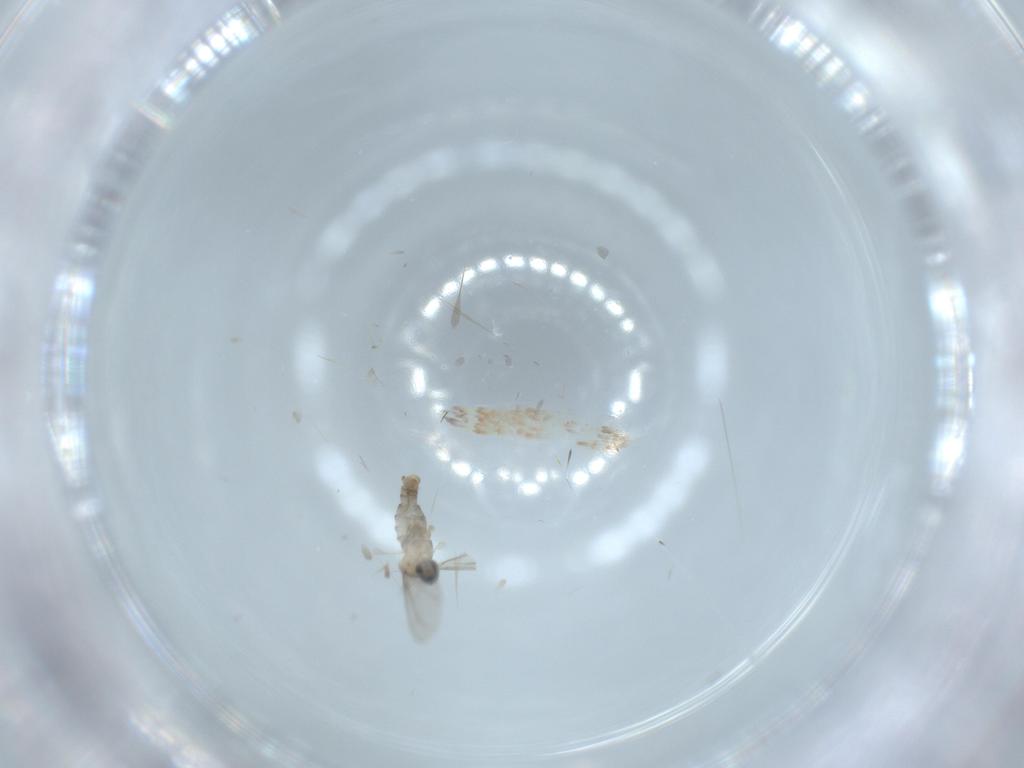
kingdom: Animalia
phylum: Arthropoda
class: Insecta
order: Diptera
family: Cecidomyiidae
